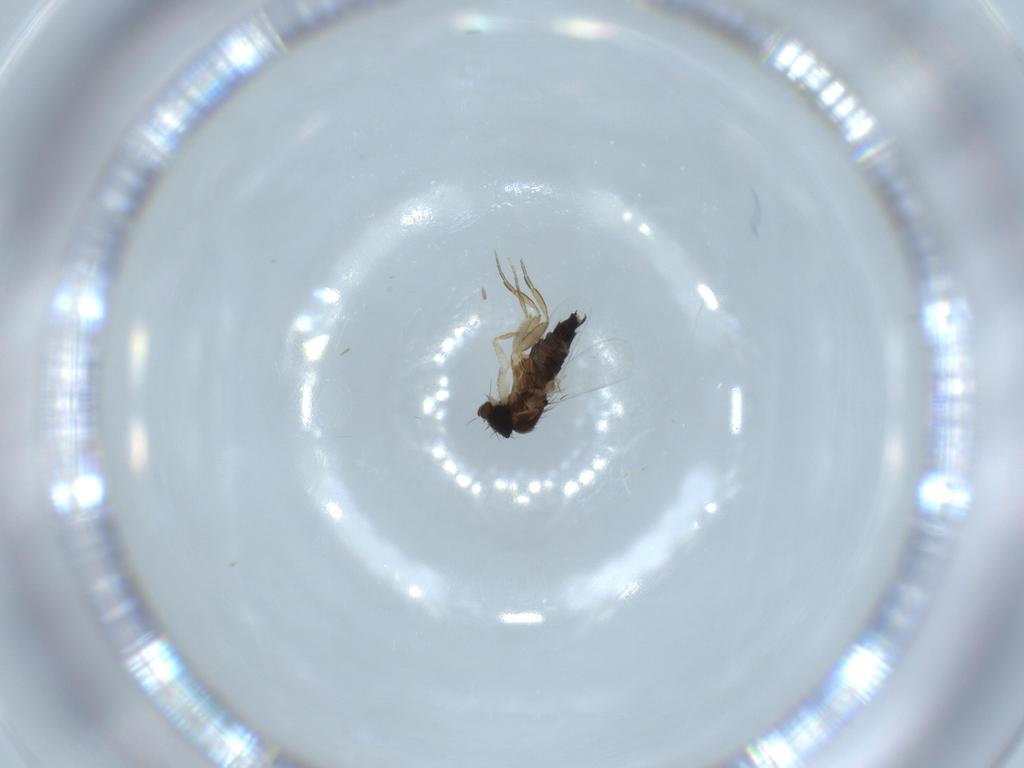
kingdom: Animalia
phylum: Arthropoda
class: Insecta
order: Diptera
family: Phoridae
